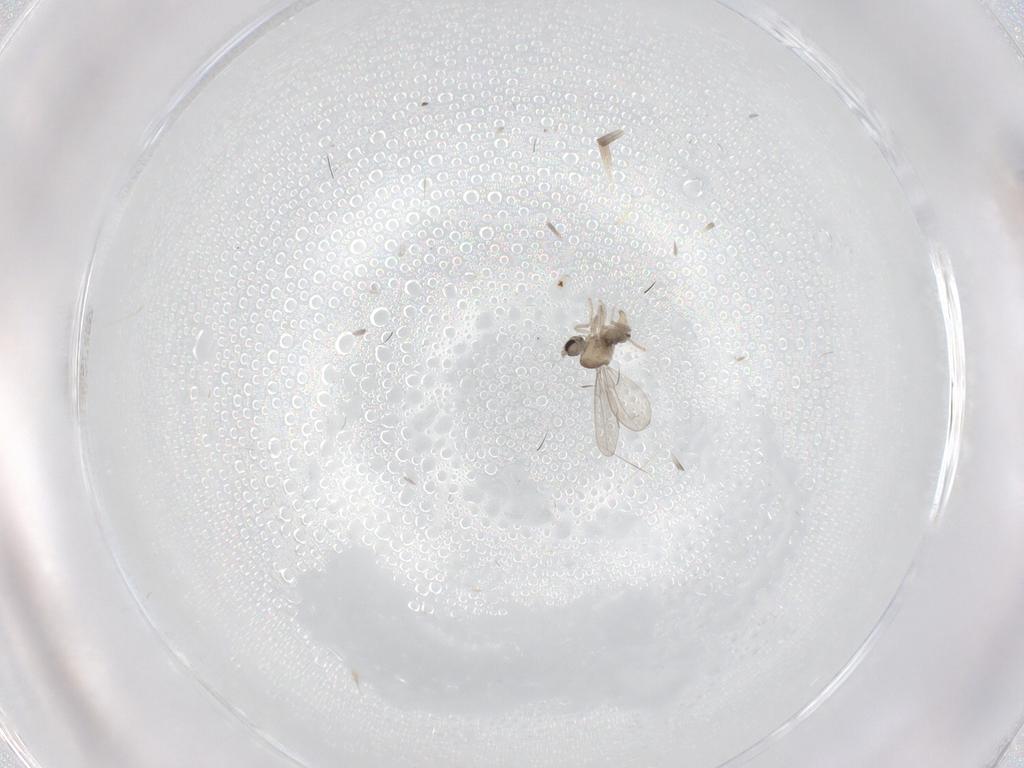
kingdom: Animalia
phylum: Arthropoda
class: Insecta
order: Diptera
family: Cecidomyiidae
